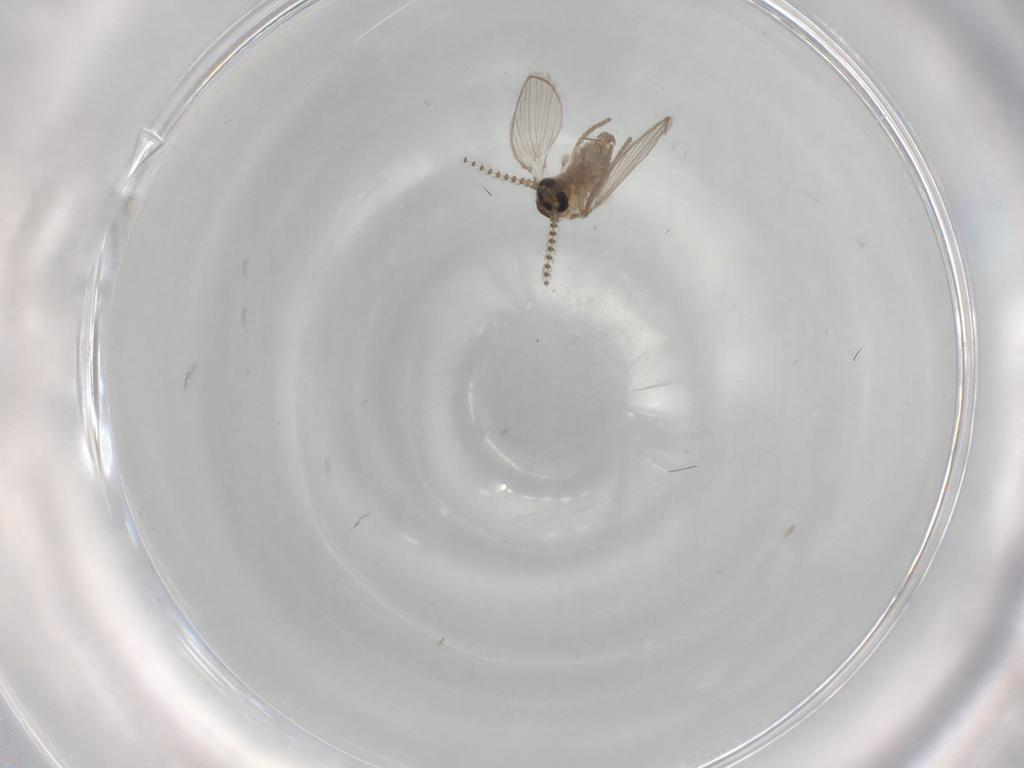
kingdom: Animalia
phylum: Arthropoda
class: Insecta
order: Diptera
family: Psychodidae
